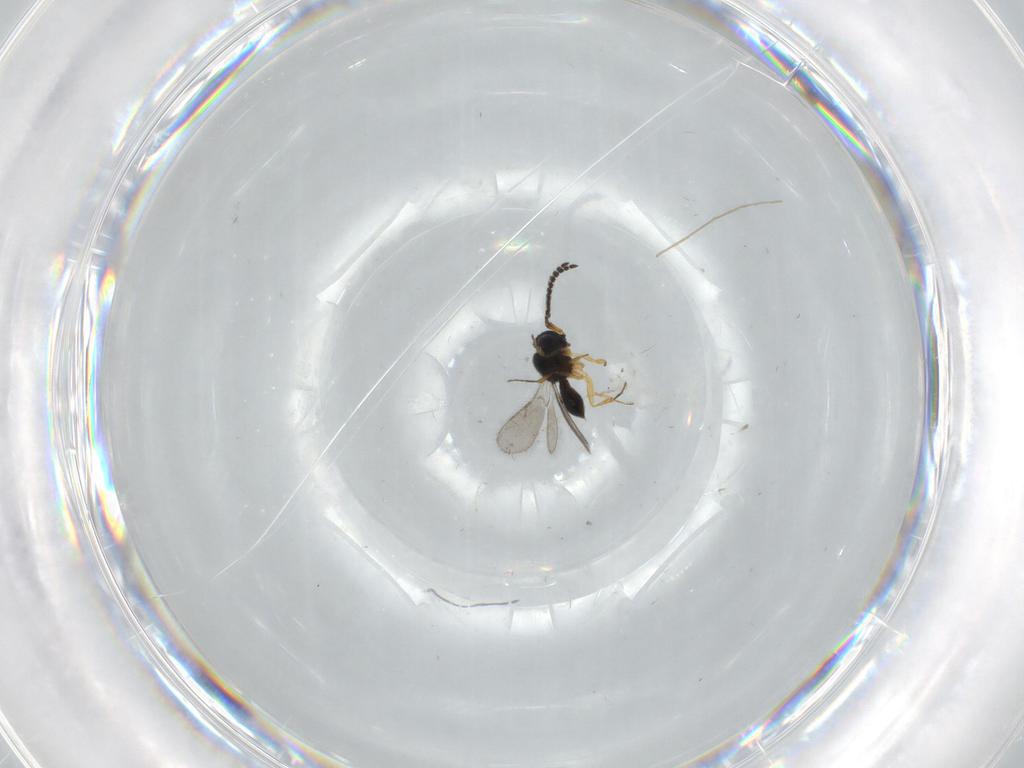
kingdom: Animalia
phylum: Arthropoda
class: Insecta
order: Hymenoptera
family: Scelionidae
